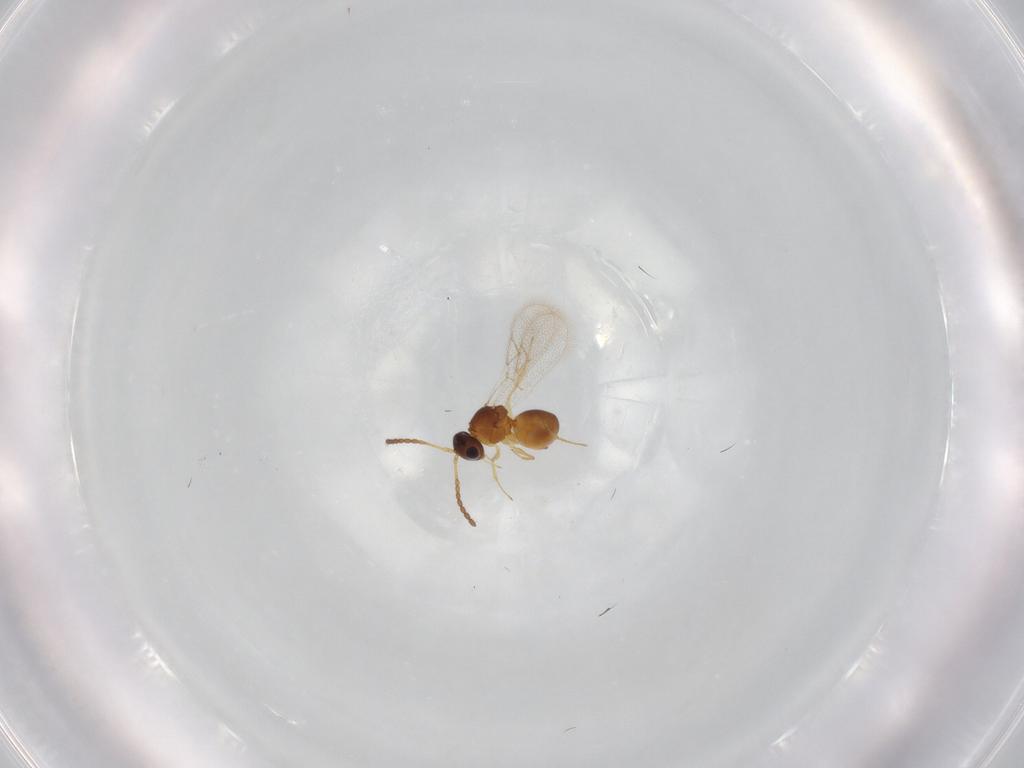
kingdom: Animalia
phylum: Arthropoda
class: Insecta
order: Hymenoptera
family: Figitidae
